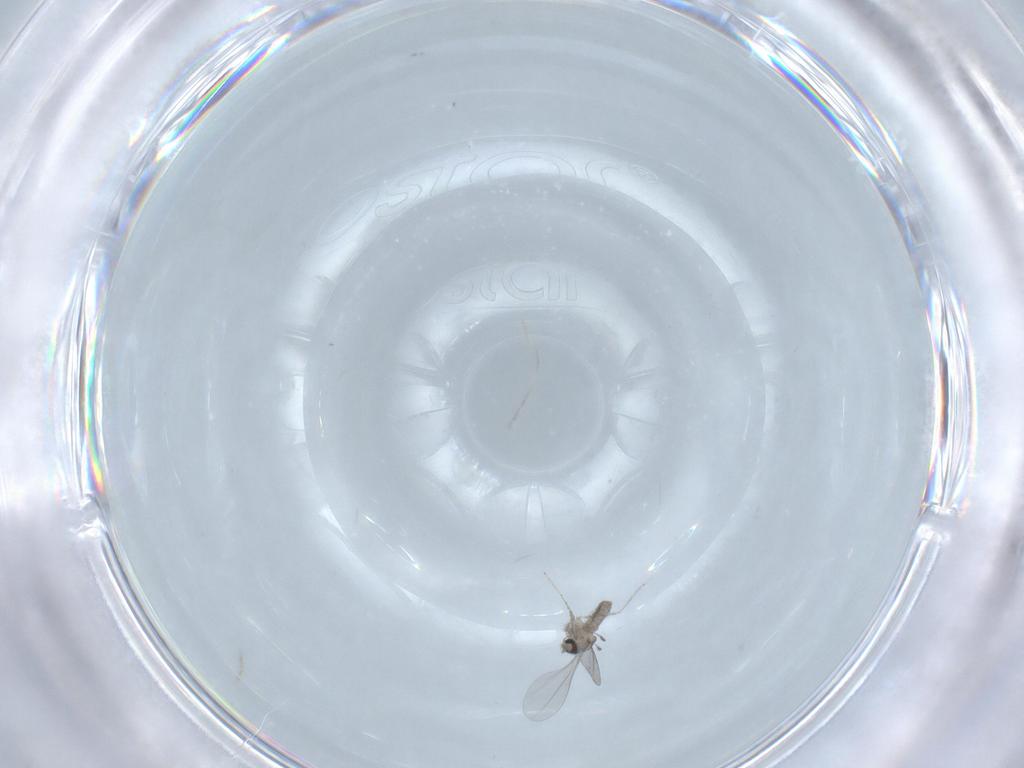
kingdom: Animalia
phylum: Arthropoda
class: Insecta
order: Diptera
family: Cecidomyiidae
